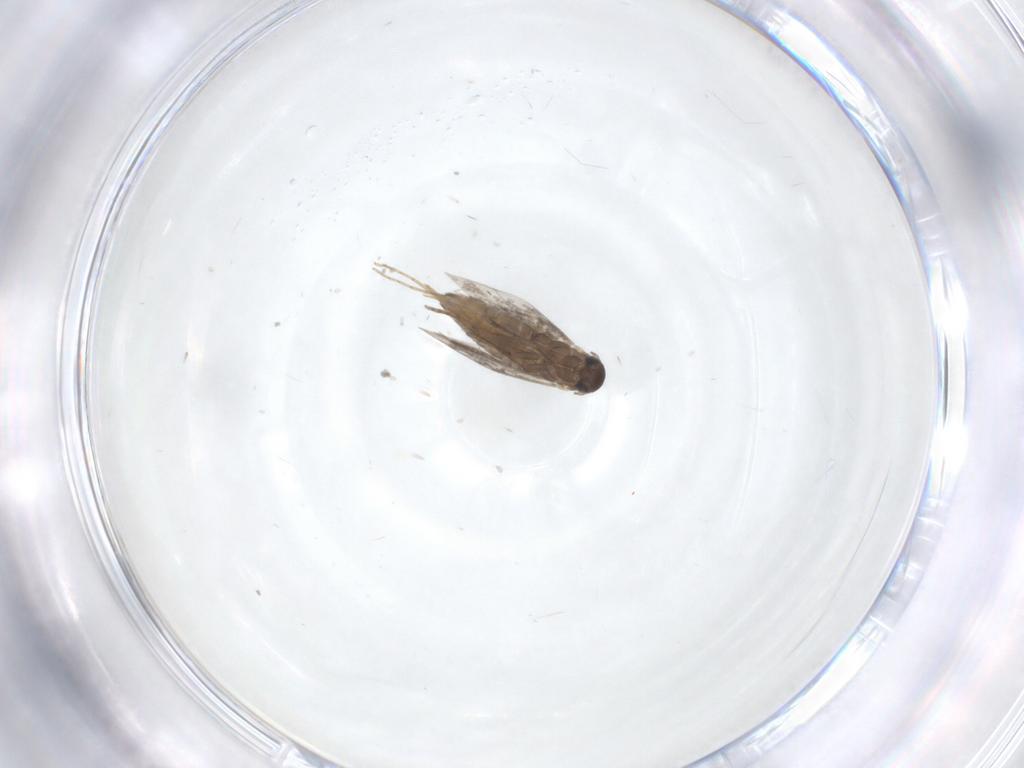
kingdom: Animalia
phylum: Arthropoda
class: Insecta
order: Lepidoptera
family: Heliozelidae
